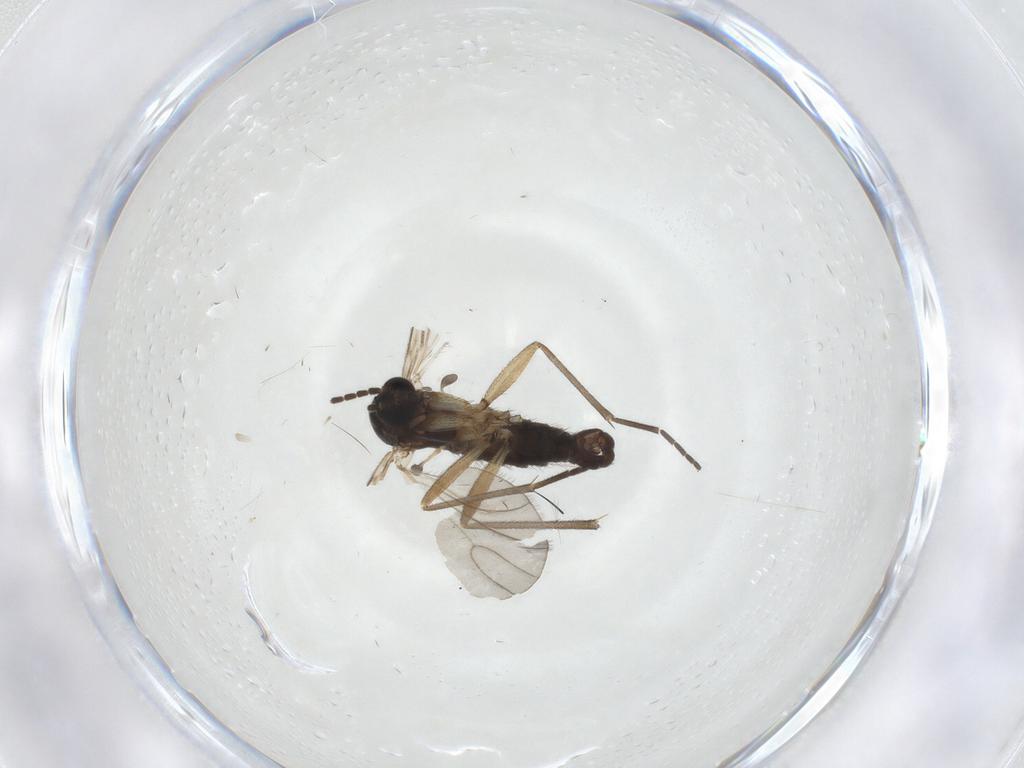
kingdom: Animalia
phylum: Arthropoda
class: Insecta
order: Diptera
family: Sciaridae
